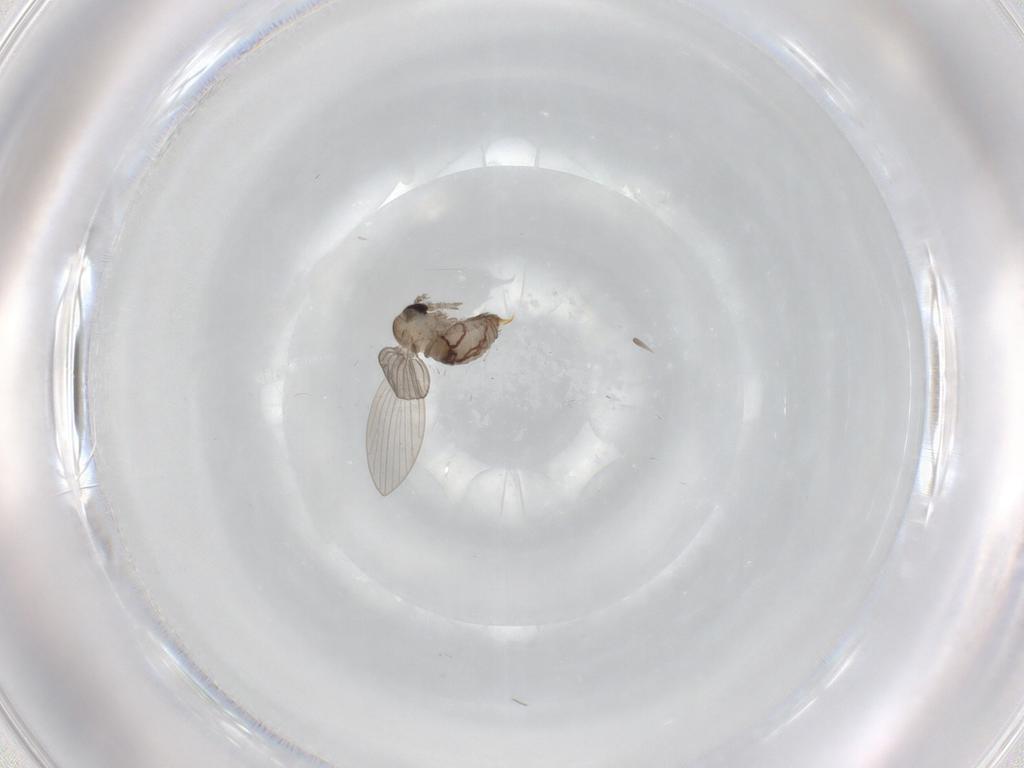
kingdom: Animalia
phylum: Arthropoda
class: Insecta
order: Diptera
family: Psychodidae
